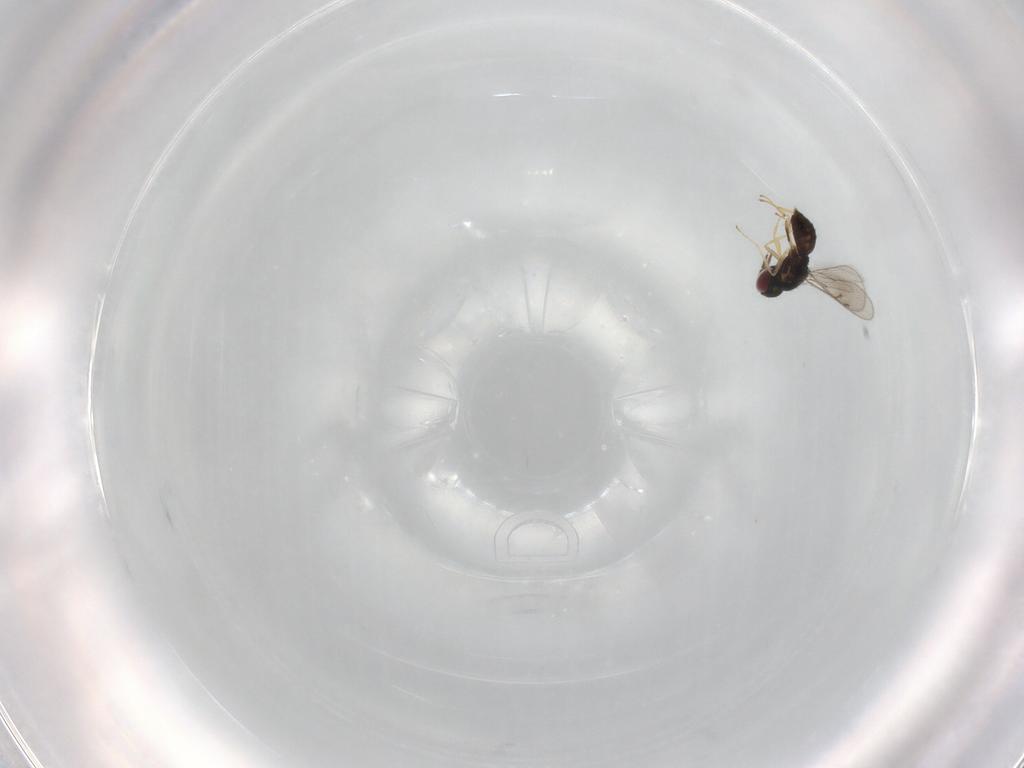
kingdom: Animalia
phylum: Arthropoda
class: Insecta
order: Hymenoptera
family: Eulophidae
